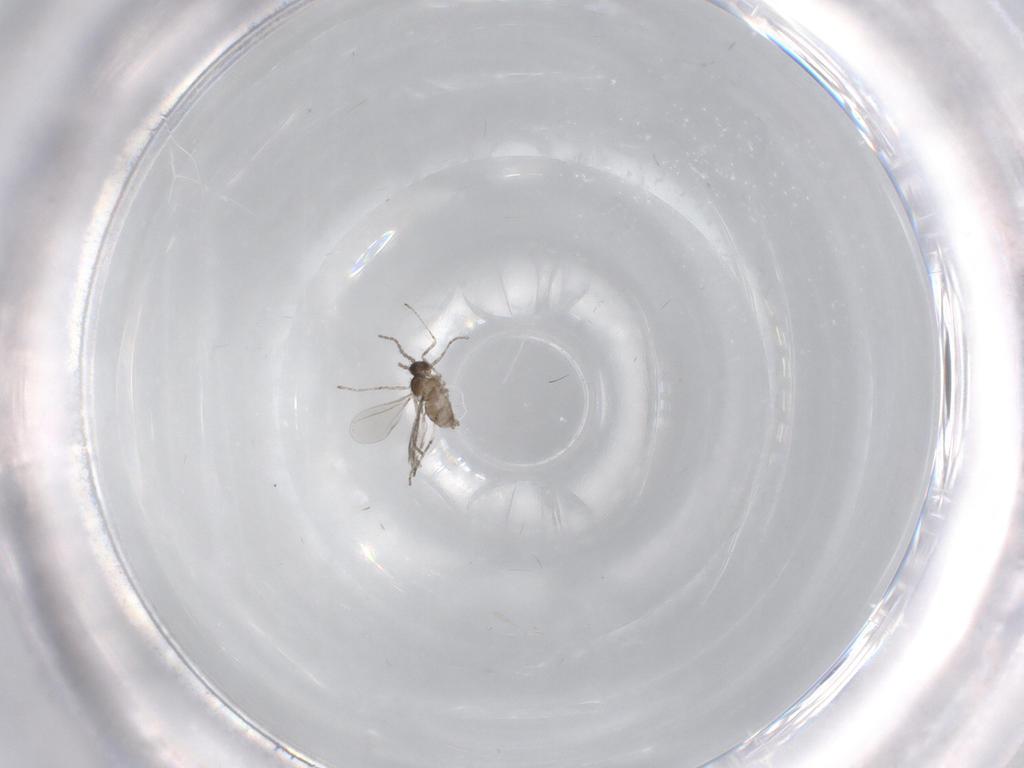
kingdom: Animalia
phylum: Arthropoda
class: Insecta
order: Diptera
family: Cecidomyiidae
